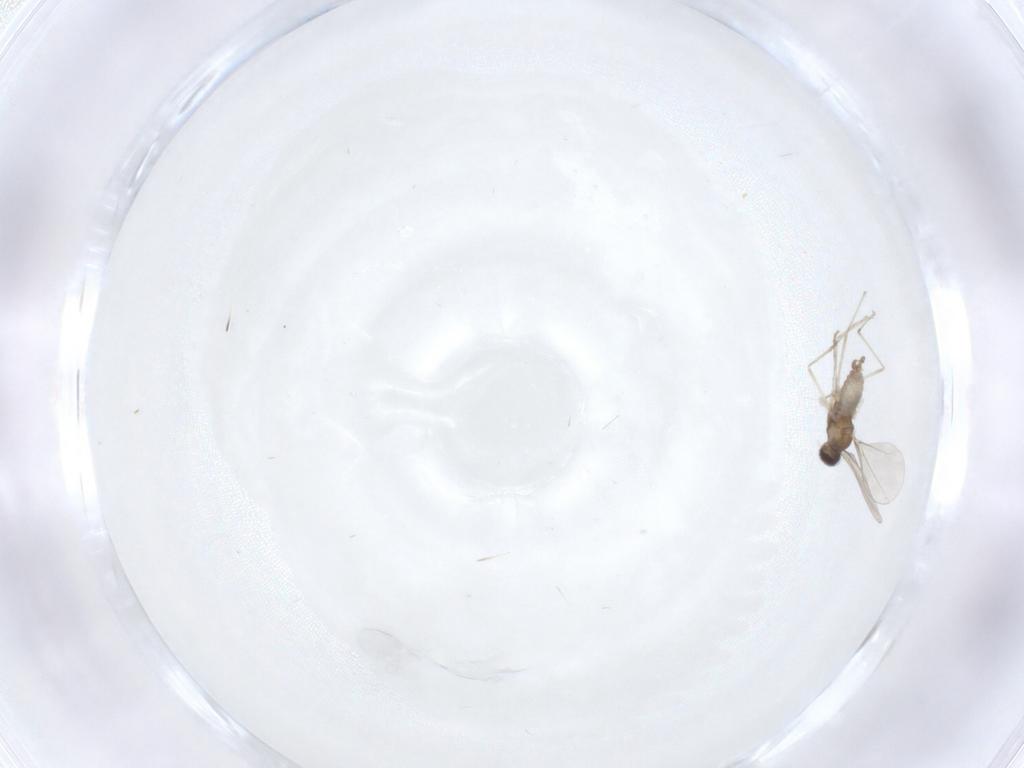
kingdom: Animalia
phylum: Arthropoda
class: Insecta
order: Diptera
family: Cecidomyiidae
